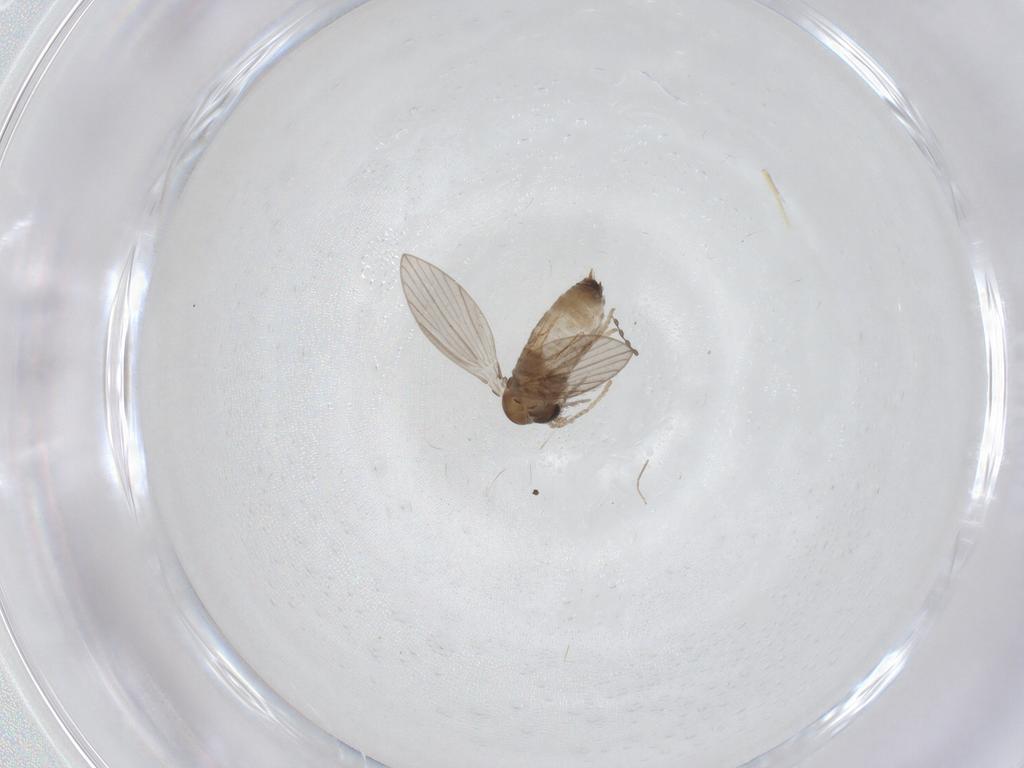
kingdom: Animalia
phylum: Arthropoda
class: Insecta
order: Diptera
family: Psychodidae
